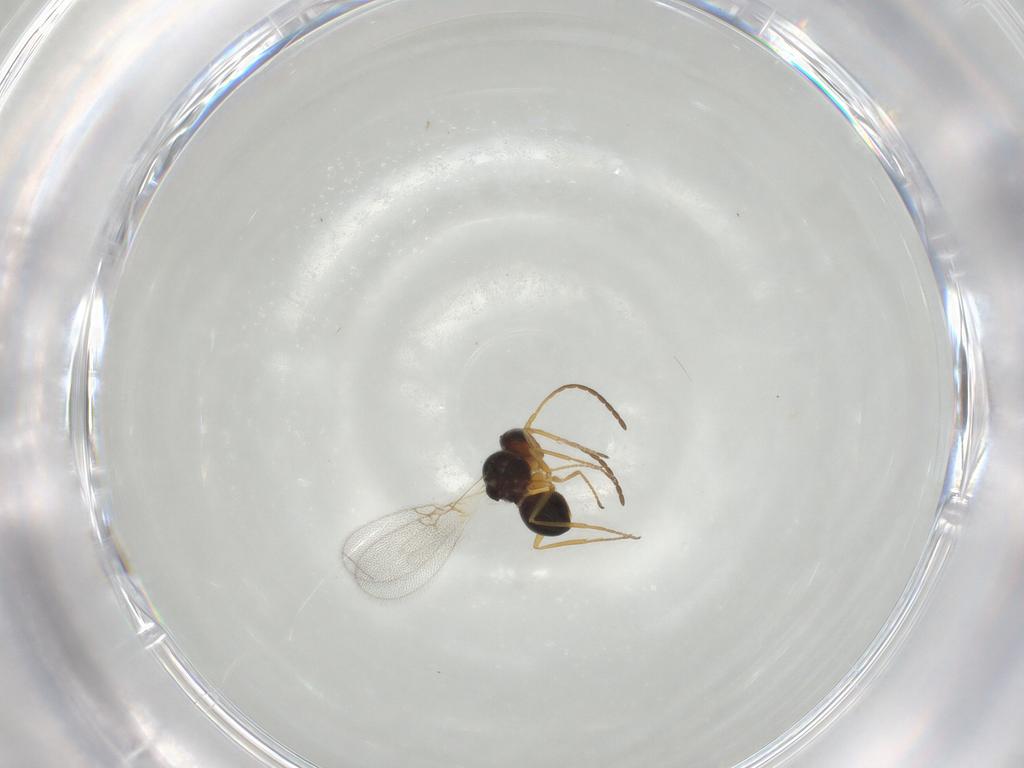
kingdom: Animalia
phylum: Arthropoda
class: Insecta
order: Hymenoptera
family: Figitidae
